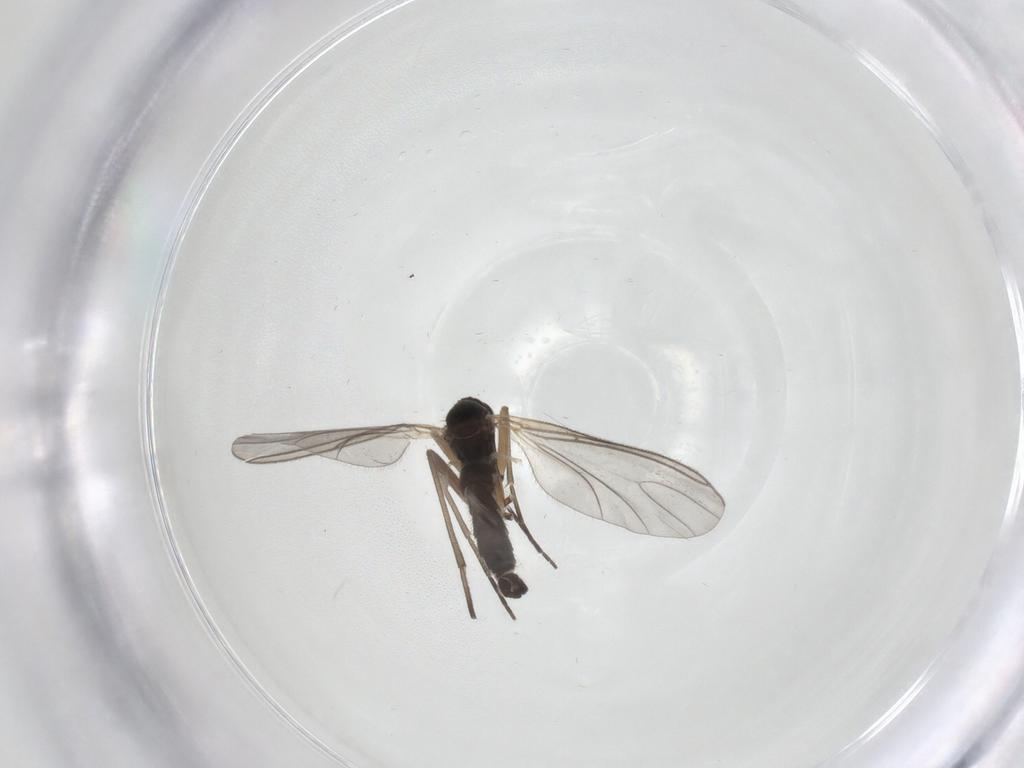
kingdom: Animalia
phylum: Arthropoda
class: Insecta
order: Diptera
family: Sciaridae
